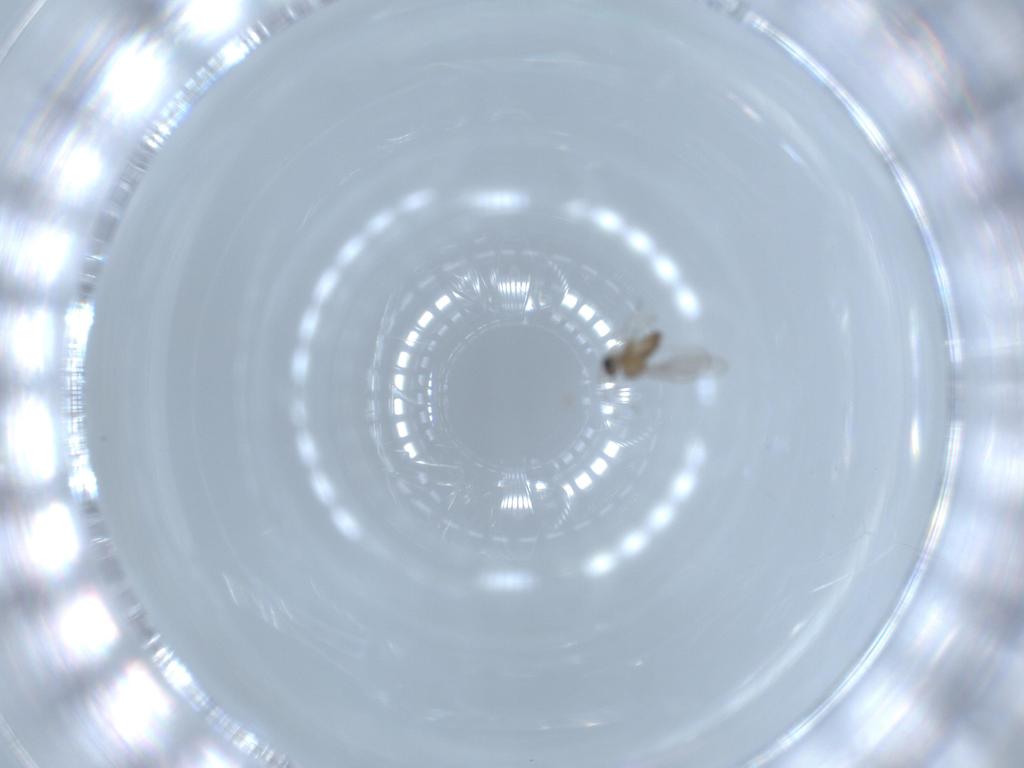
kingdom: Animalia
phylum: Arthropoda
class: Insecta
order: Diptera
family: Cecidomyiidae
